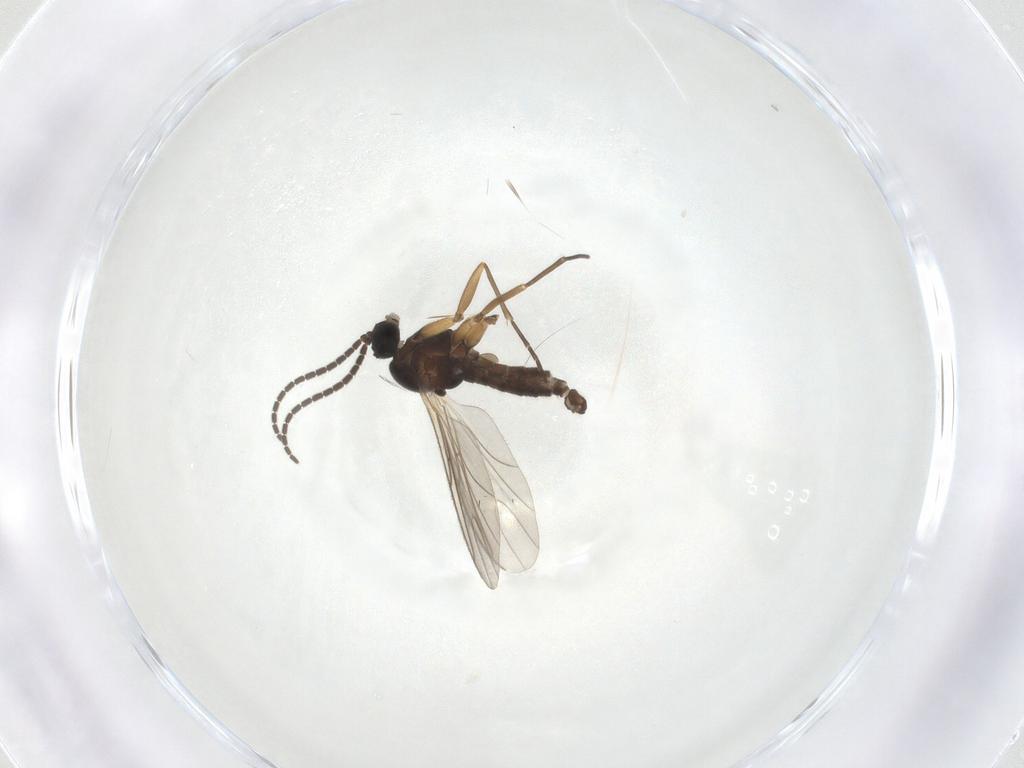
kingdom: Animalia
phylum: Arthropoda
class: Insecta
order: Diptera
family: Sciaridae
